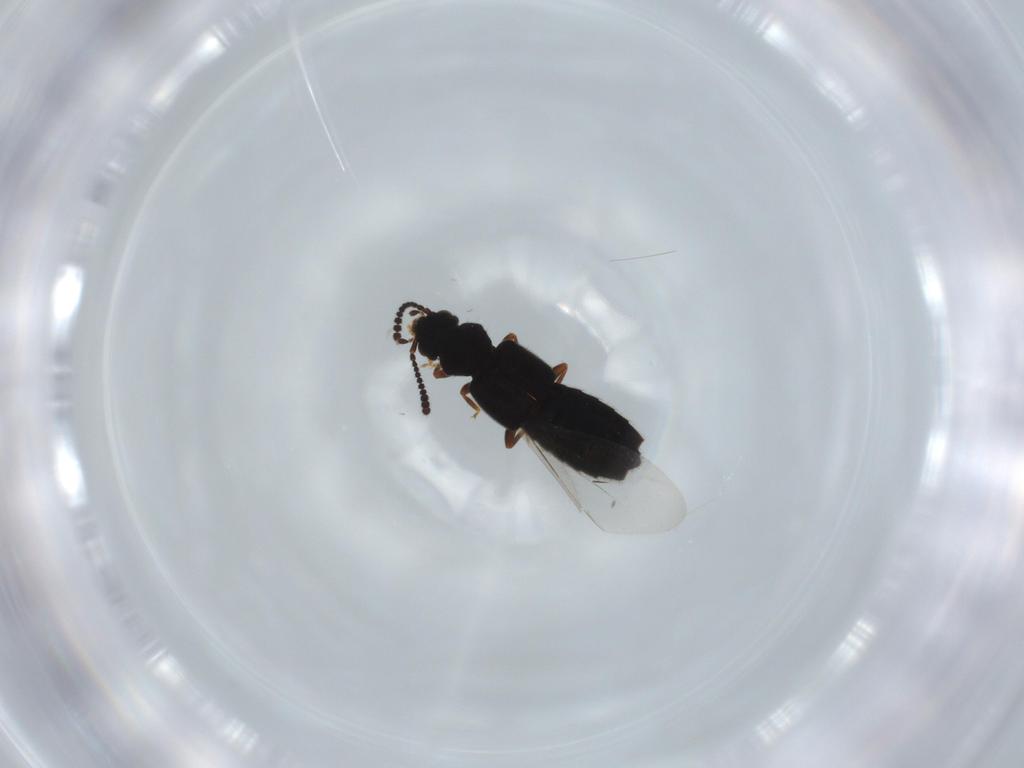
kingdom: Animalia
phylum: Arthropoda
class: Insecta
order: Coleoptera
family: Staphylinidae
